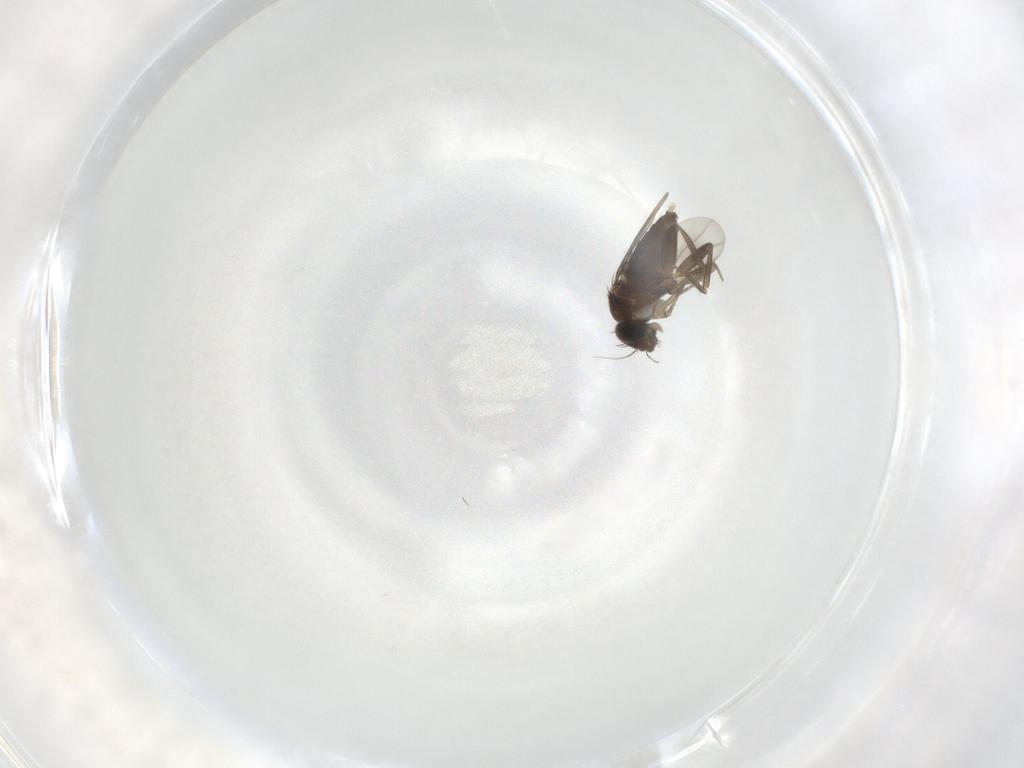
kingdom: Animalia
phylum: Arthropoda
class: Insecta
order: Diptera
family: Phoridae
